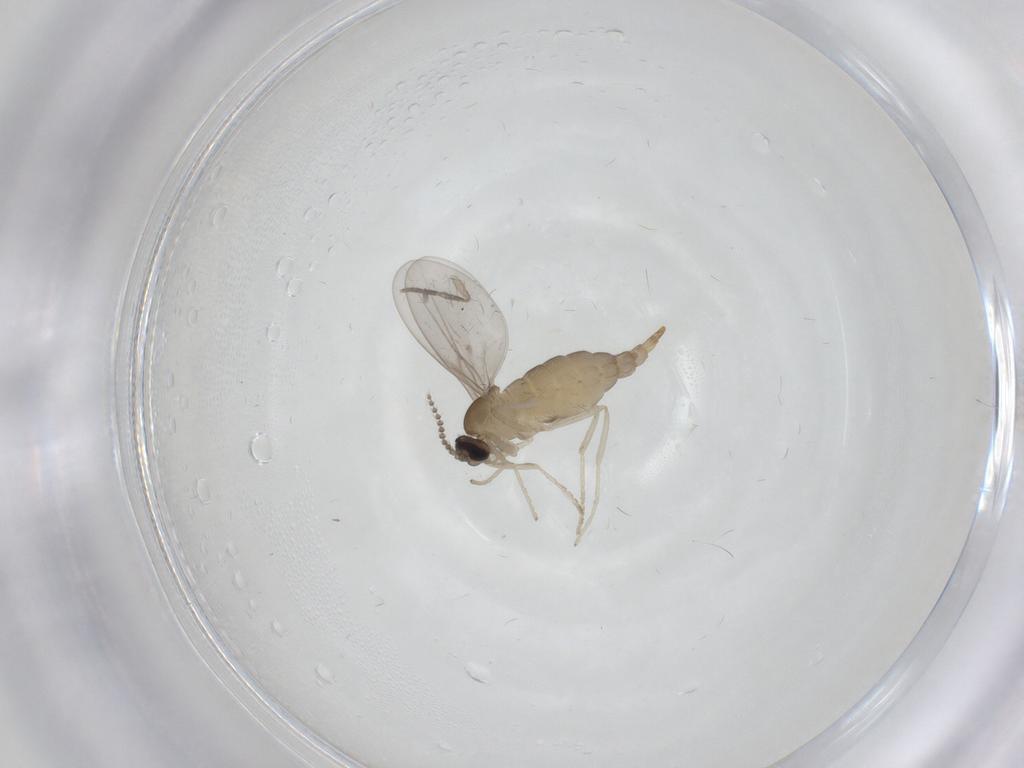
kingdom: Animalia
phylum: Arthropoda
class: Insecta
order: Diptera
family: Cecidomyiidae
